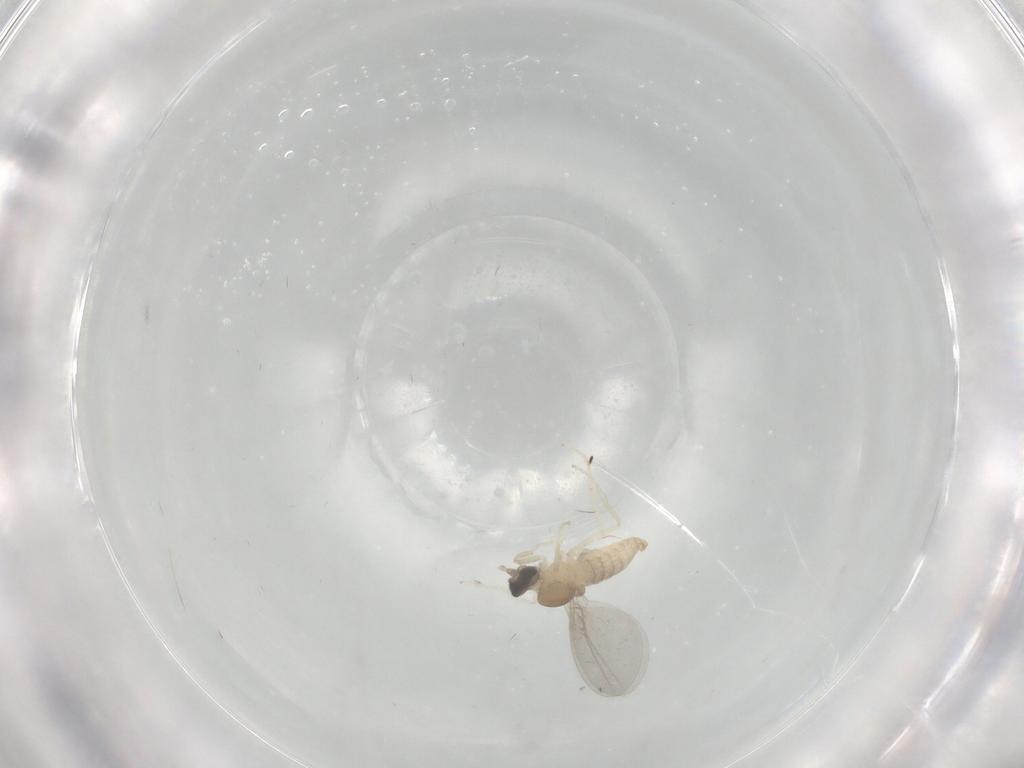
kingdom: Animalia
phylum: Arthropoda
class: Insecta
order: Diptera
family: Cecidomyiidae
